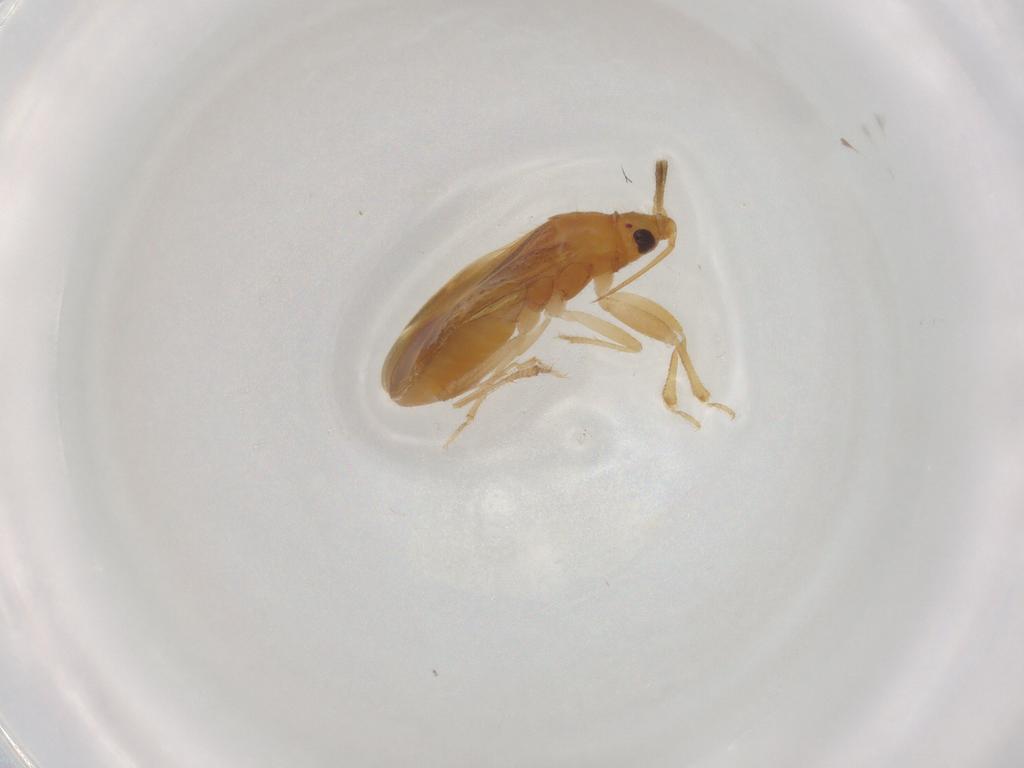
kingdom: Animalia
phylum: Arthropoda
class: Insecta
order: Hemiptera
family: Lasiochilidae
